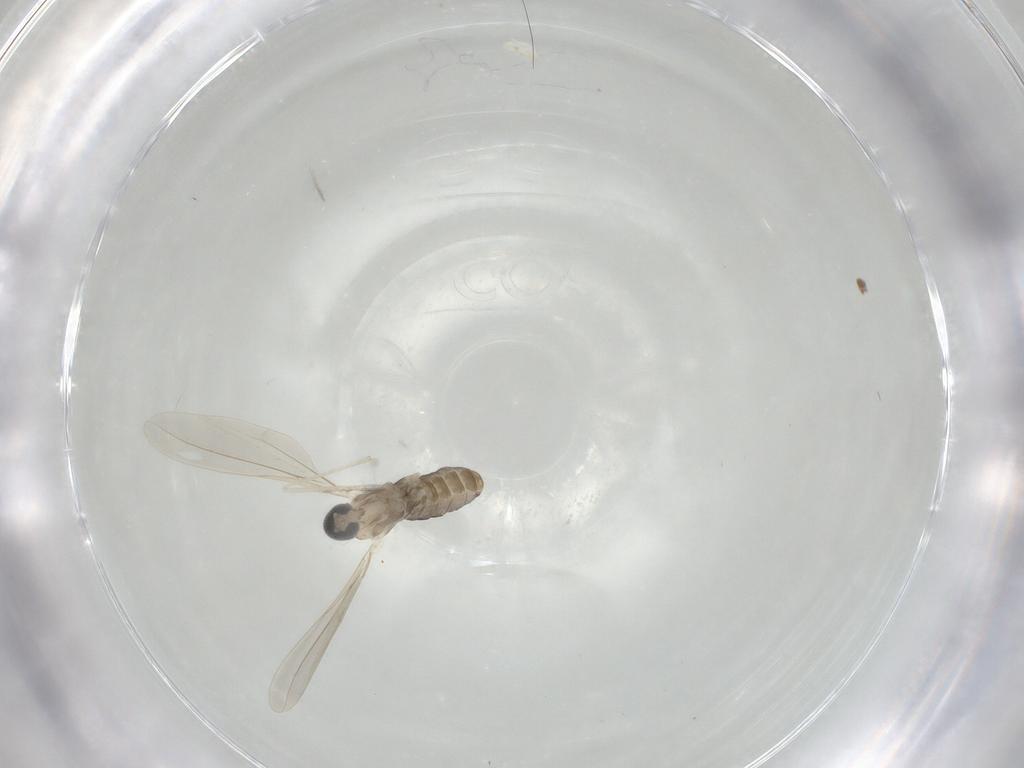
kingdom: Animalia
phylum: Arthropoda
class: Insecta
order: Diptera
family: Cecidomyiidae
